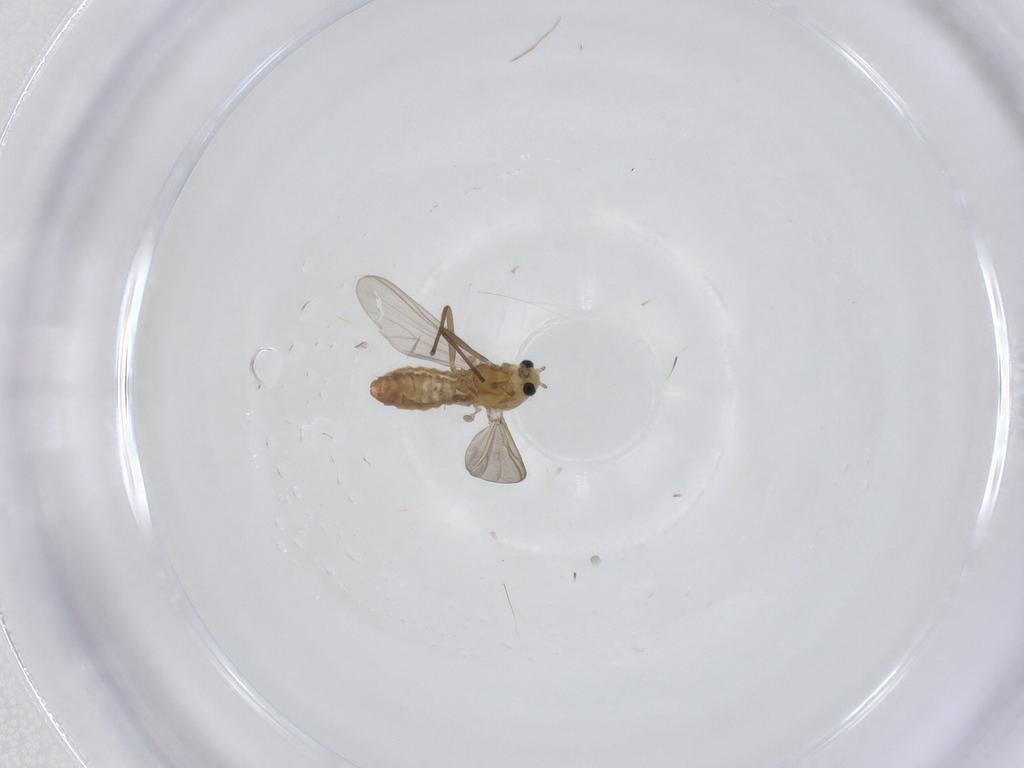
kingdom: Animalia
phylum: Arthropoda
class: Insecta
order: Diptera
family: Chironomidae
